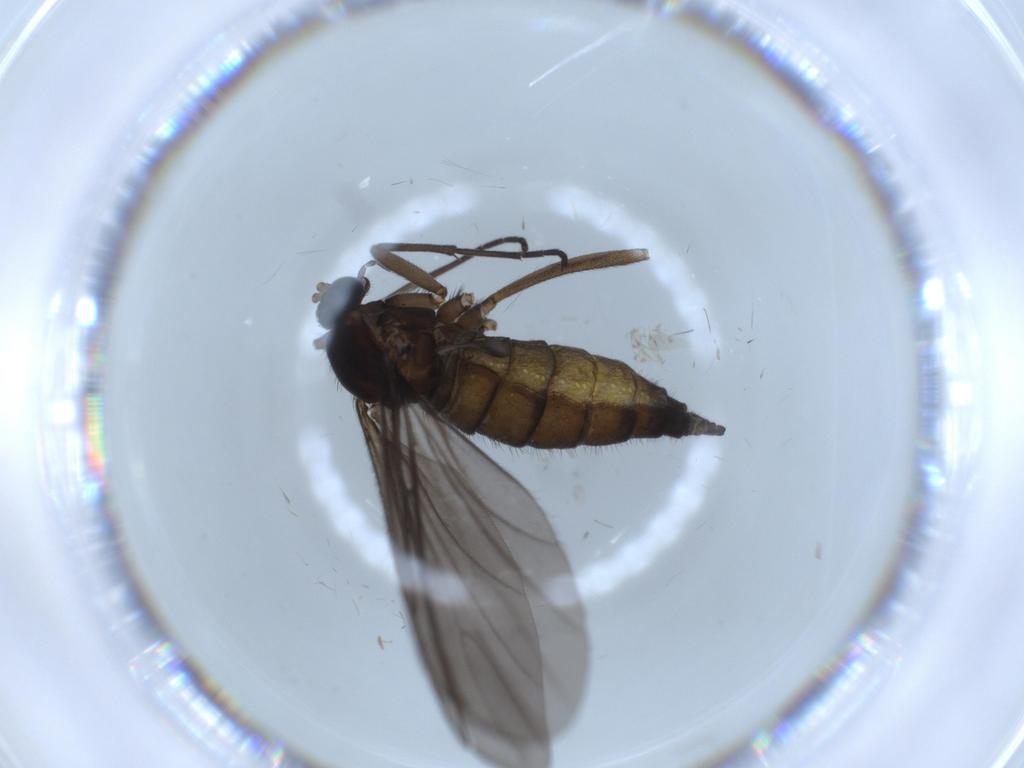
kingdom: Animalia
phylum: Arthropoda
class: Insecta
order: Diptera
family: Sciaridae
